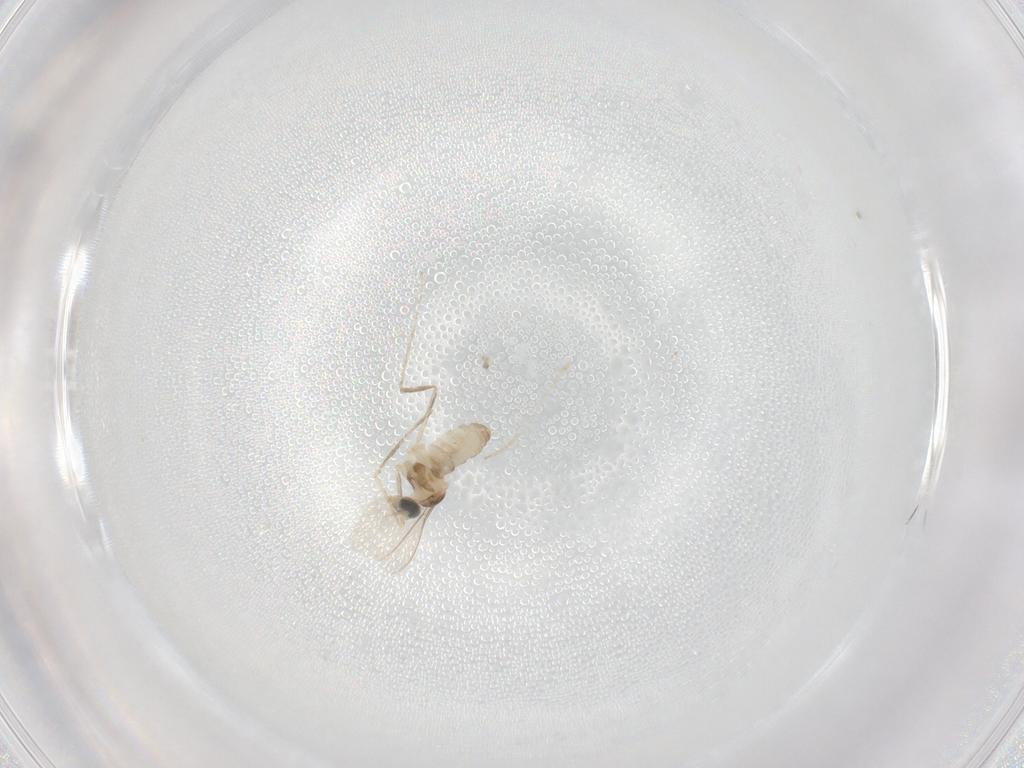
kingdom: Animalia
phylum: Arthropoda
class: Insecta
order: Diptera
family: Cecidomyiidae
